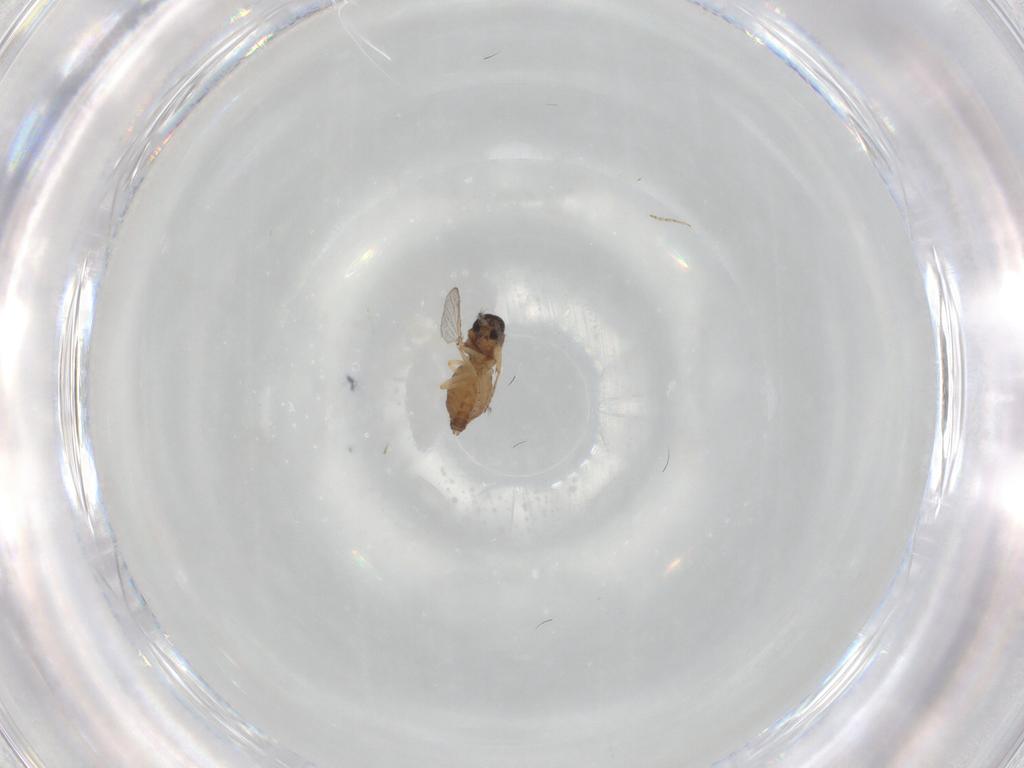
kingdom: Animalia
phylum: Arthropoda
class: Insecta
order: Diptera
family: Ceratopogonidae
